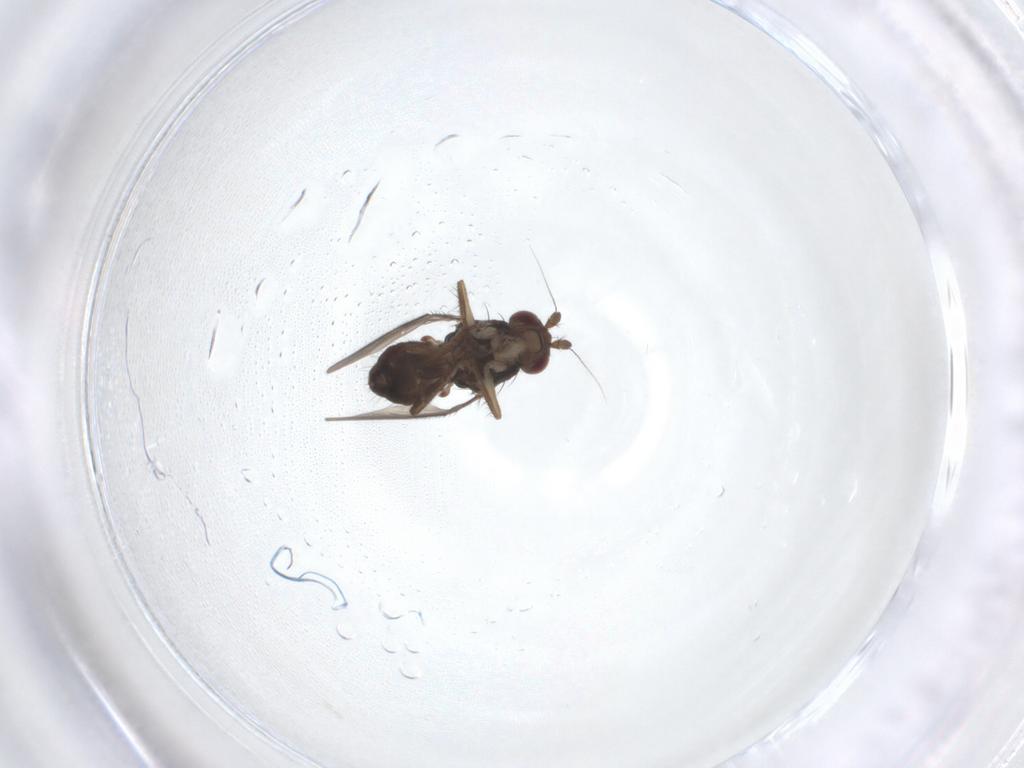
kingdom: Animalia
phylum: Arthropoda
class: Insecta
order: Diptera
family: Sphaeroceridae
